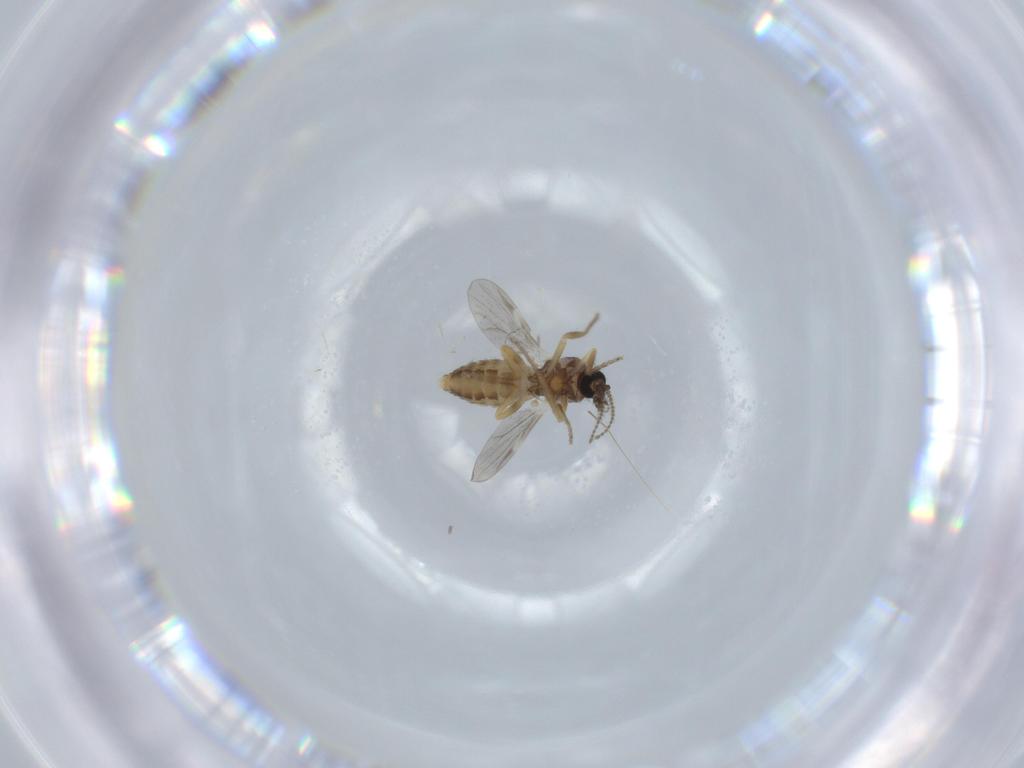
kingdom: Animalia
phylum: Arthropoda
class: Insecta
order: Diptera
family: Ceratopogonidae
